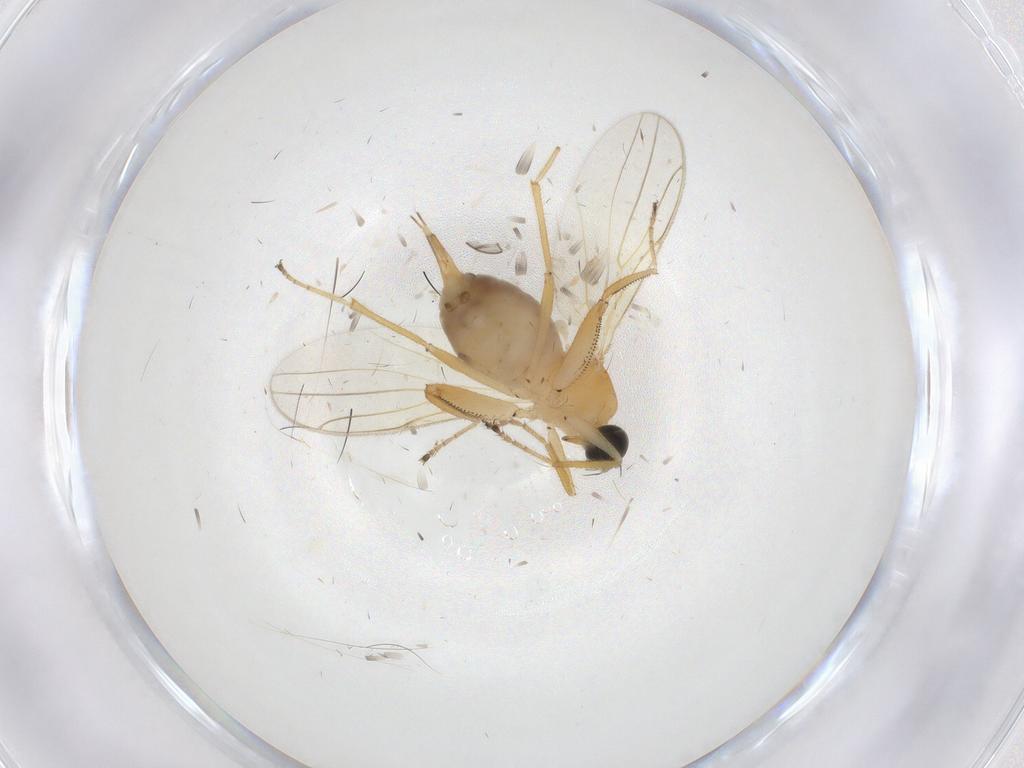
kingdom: Animalia
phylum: Arthropoda
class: Insecta
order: Diptera
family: Hybotidae
